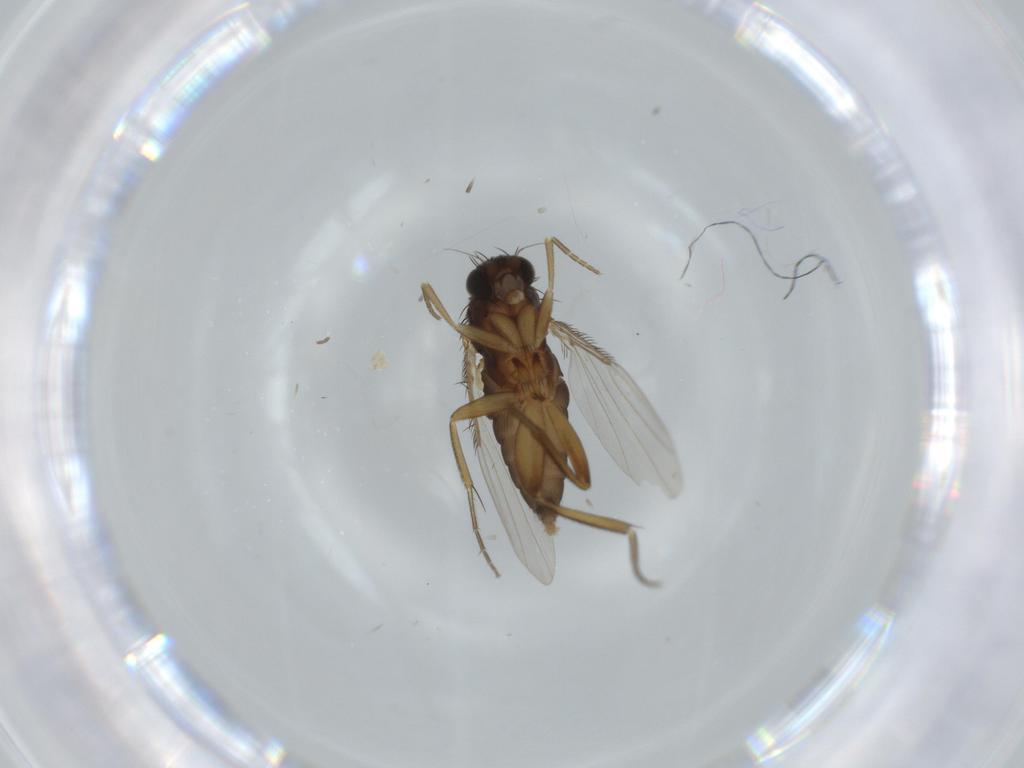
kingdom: Animalia
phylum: Arthropoda
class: Insecta
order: Diptera
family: Phoridae
